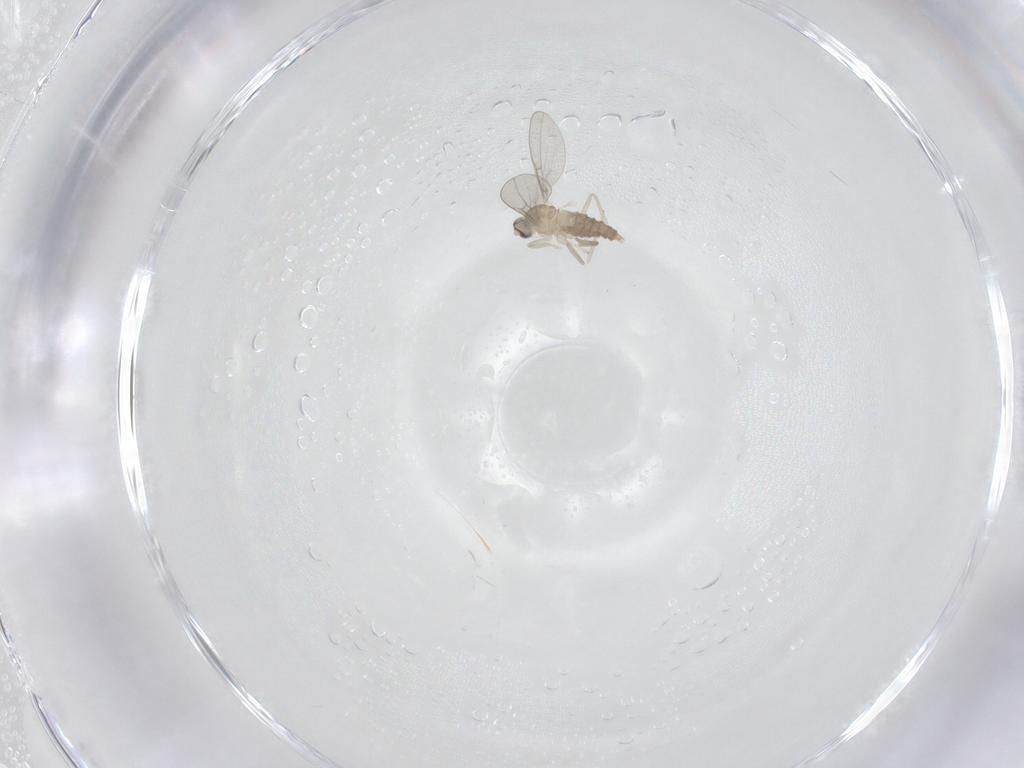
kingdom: Animalia
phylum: Arthropoda
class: Insecta
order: Diptera
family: Cecidomyiidae
